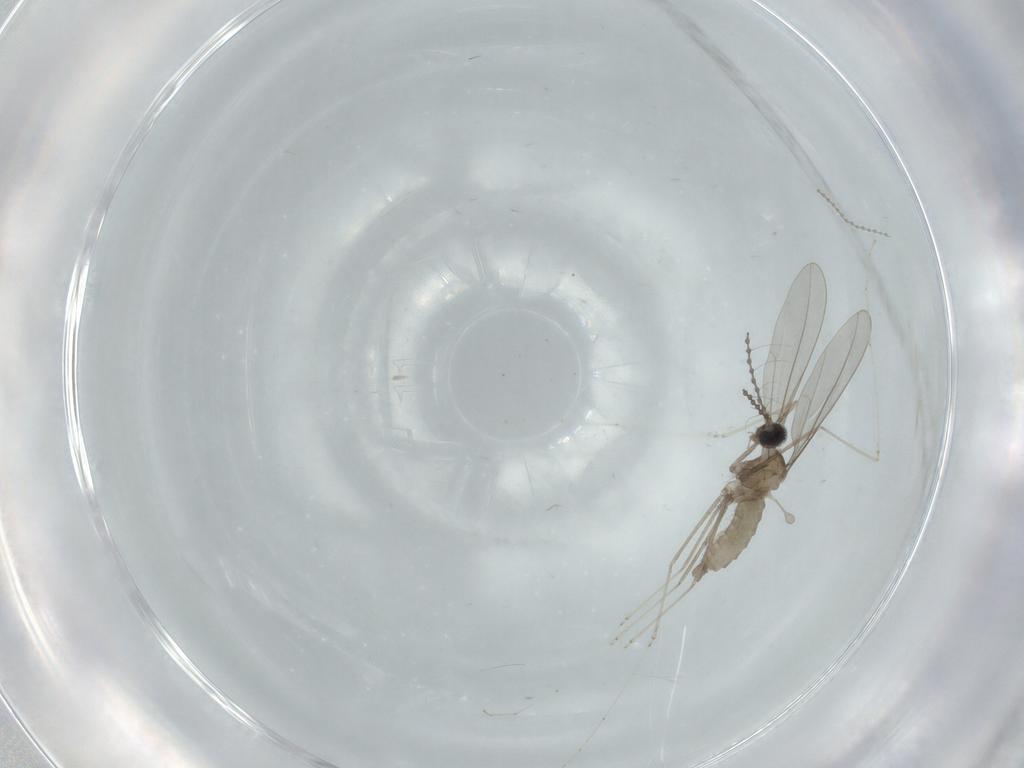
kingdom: Animalia
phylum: Arthropoda
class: Insecta
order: Diptera
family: Cecidomyiidae
